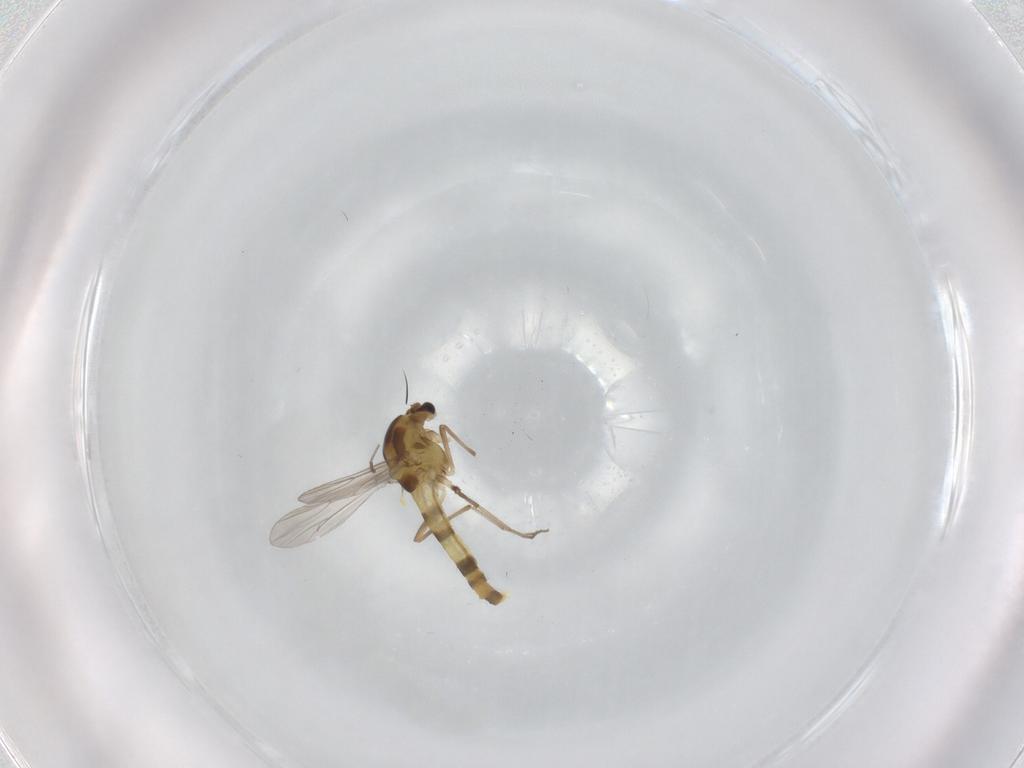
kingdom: Animalia
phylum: Arthropoda
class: Insecta
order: Diptera
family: Chironomidae
